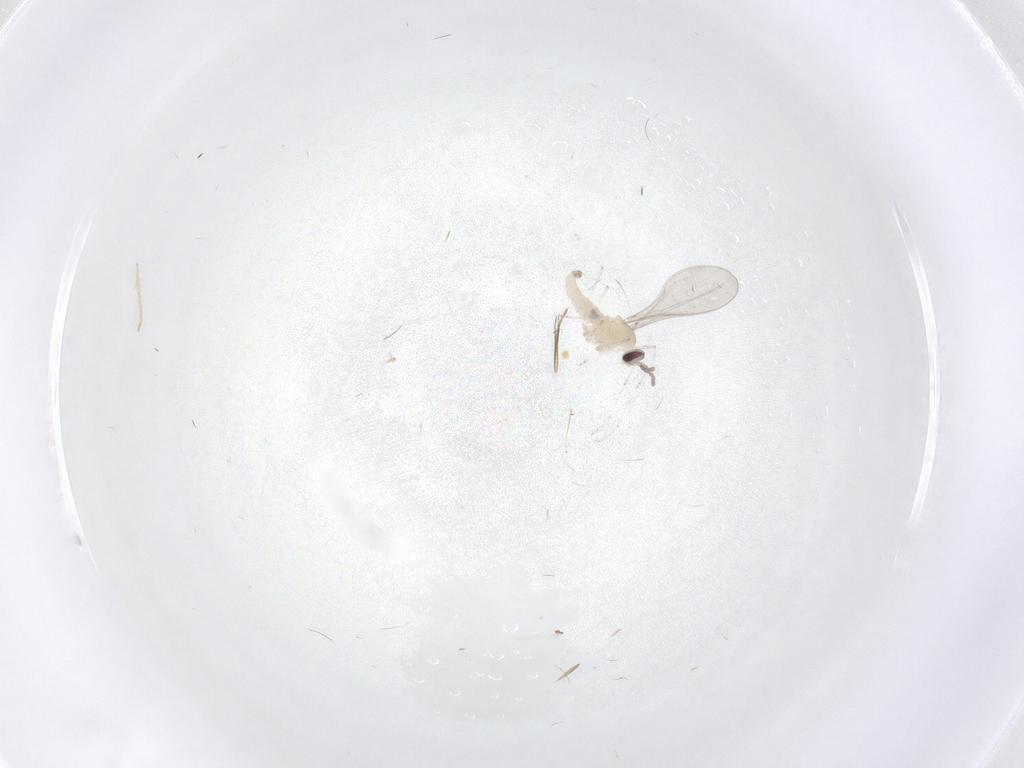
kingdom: Animalia
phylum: Arthropoda
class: Insecta
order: Diptera
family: Cecidomyiidae
